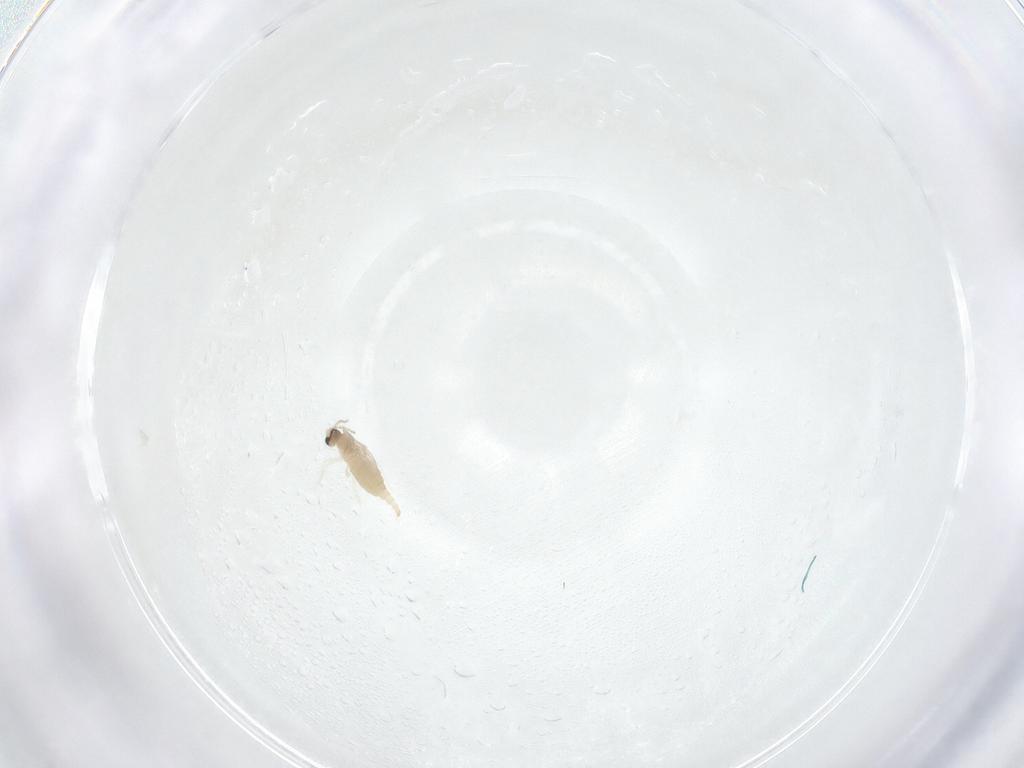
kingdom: Animalia
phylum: Arthropoda
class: Insecta
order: Diptera
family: Cecidomyiidae
